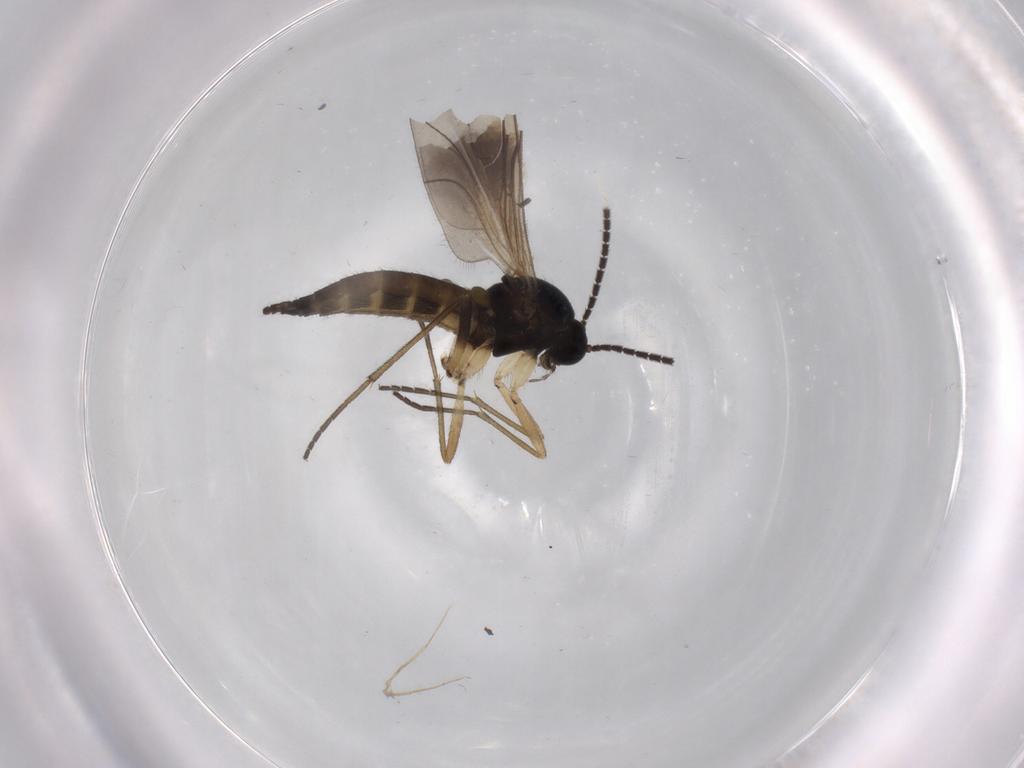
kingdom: Animalia
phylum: Arthropoda
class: Insecta
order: Diptera
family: Sciaridae
